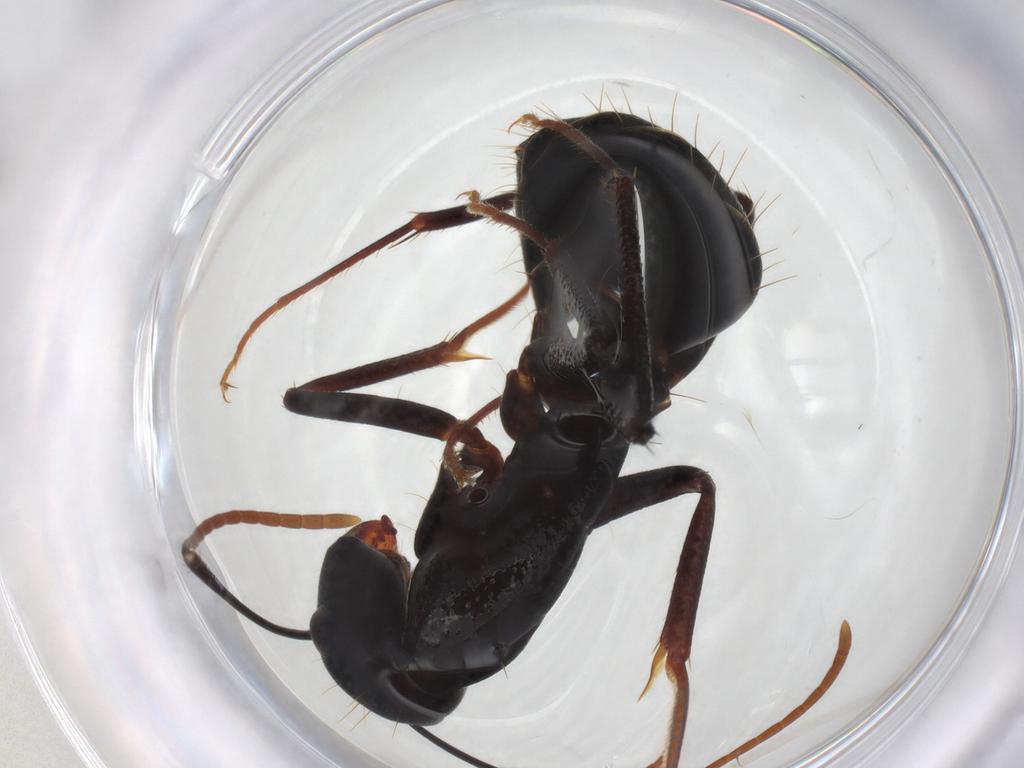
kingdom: Animalia
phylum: Arthropoda
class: Insecta
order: Hymenoptera
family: Formicidae
